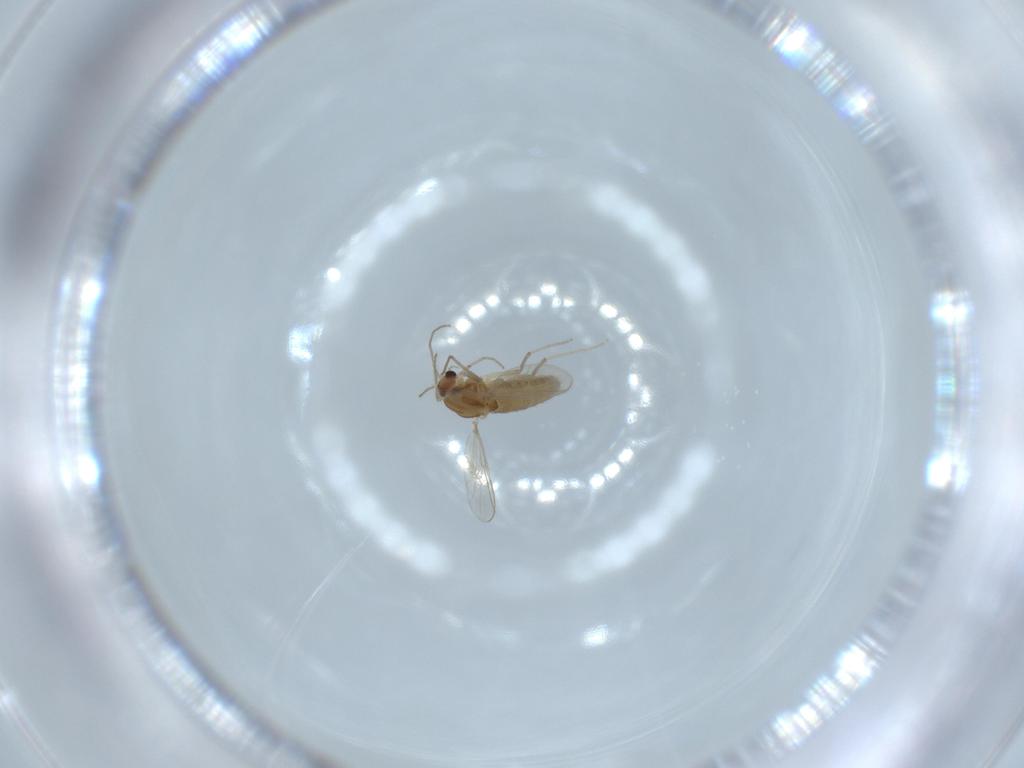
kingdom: Animalia
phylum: Arthropoda
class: Insecta
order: Diptera
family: Chironomidae
